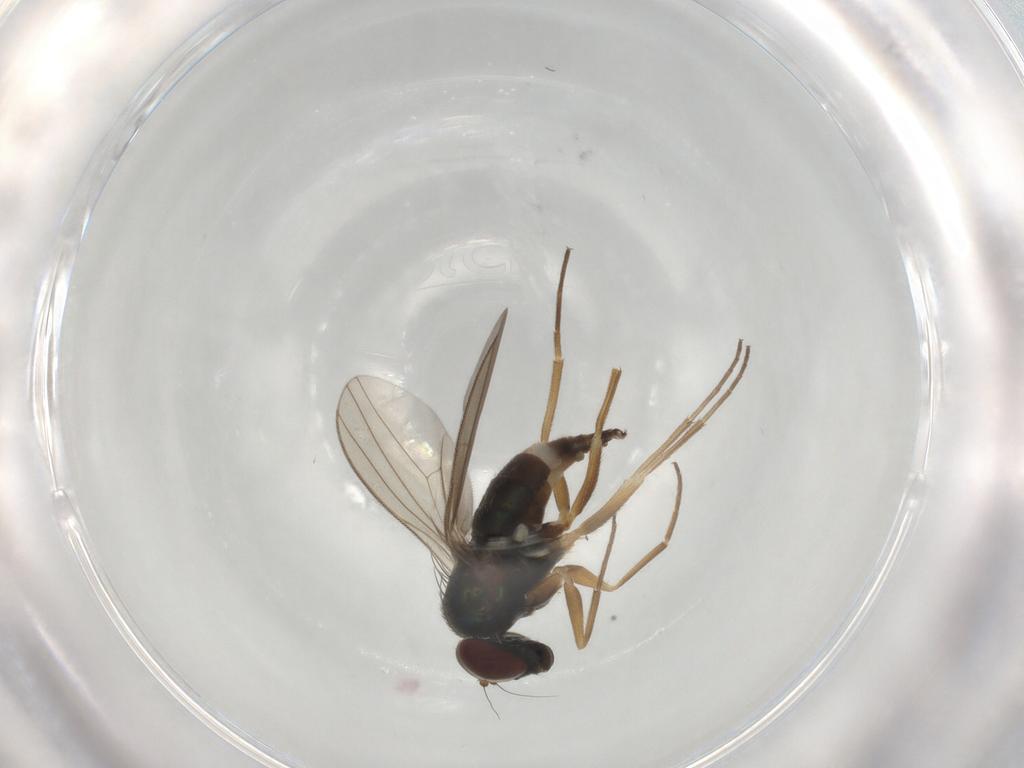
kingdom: Animalia
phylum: Arthropoda
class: Insecta
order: Diptera
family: Dolichopodidae
